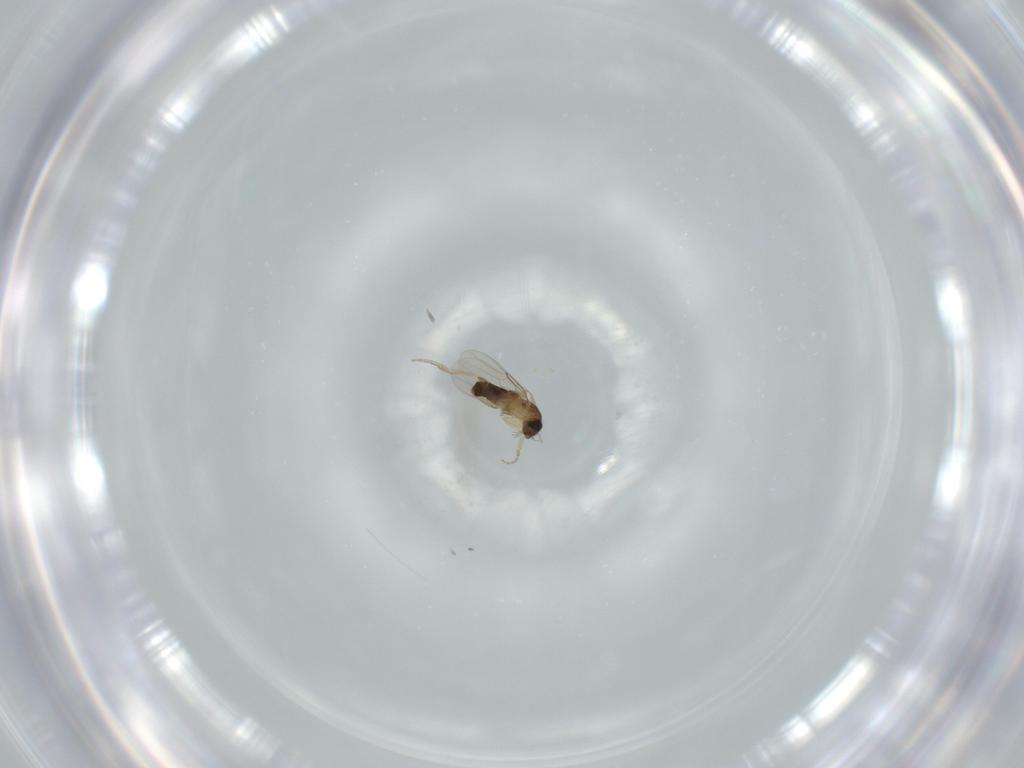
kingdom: Animalia
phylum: Arthropoda
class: Insecta
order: Diptera
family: Phoridae
